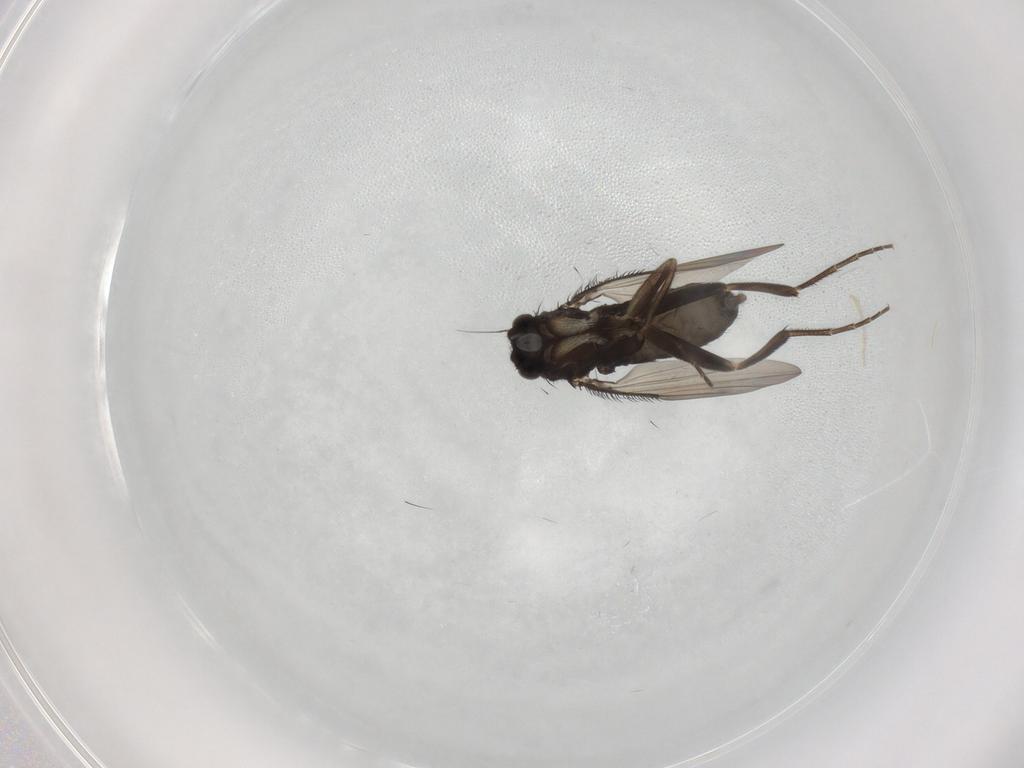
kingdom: Animalia
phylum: Arthropoda
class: Insecta
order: Diptera
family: Phoridae
